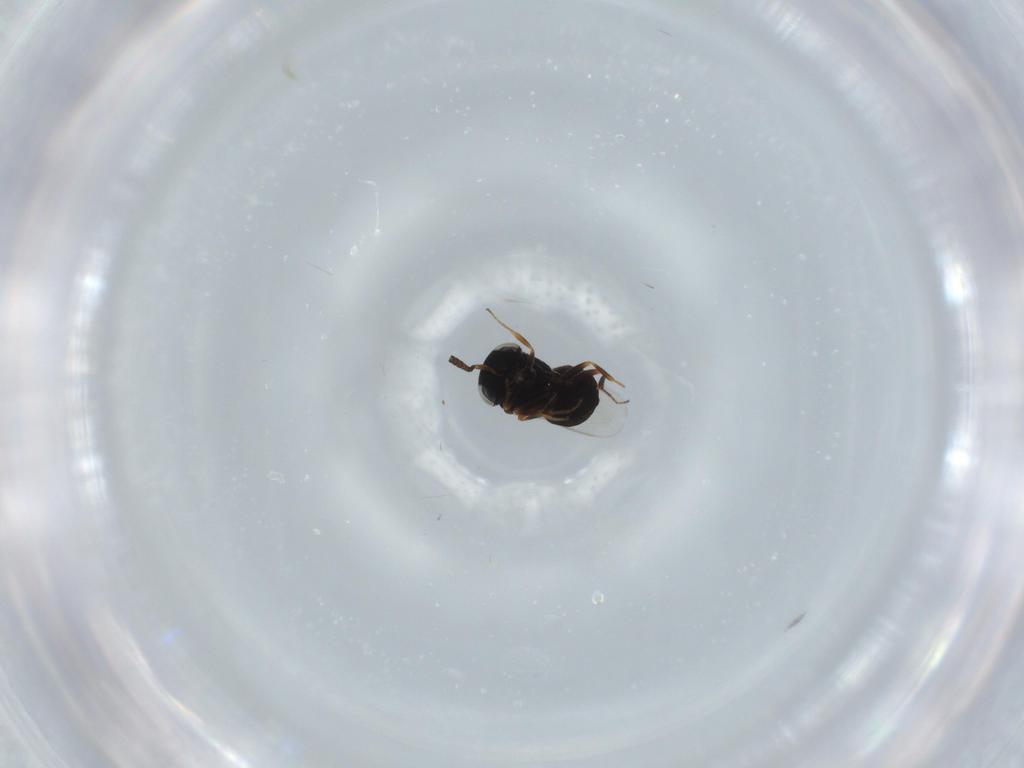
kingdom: Animalia
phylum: Arthropoda
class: Insecta
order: Hymenoptera
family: Scelionidae
